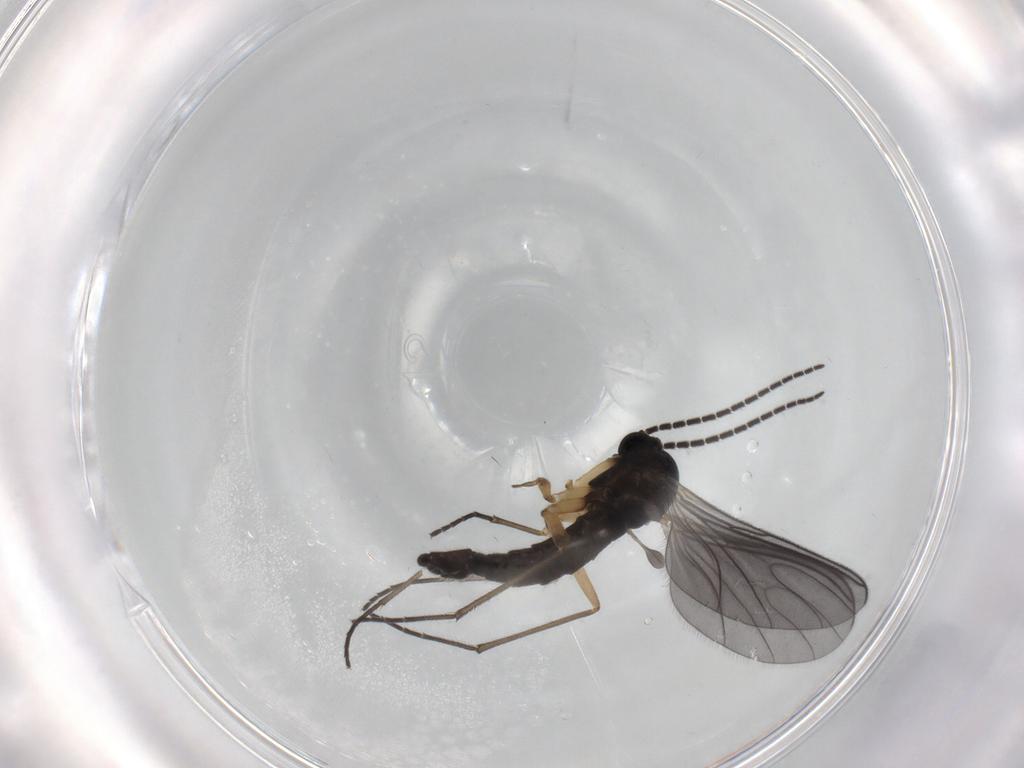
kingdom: Animalia
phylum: Arthropoda
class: Insecta
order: Diptera
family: Sciaridae
